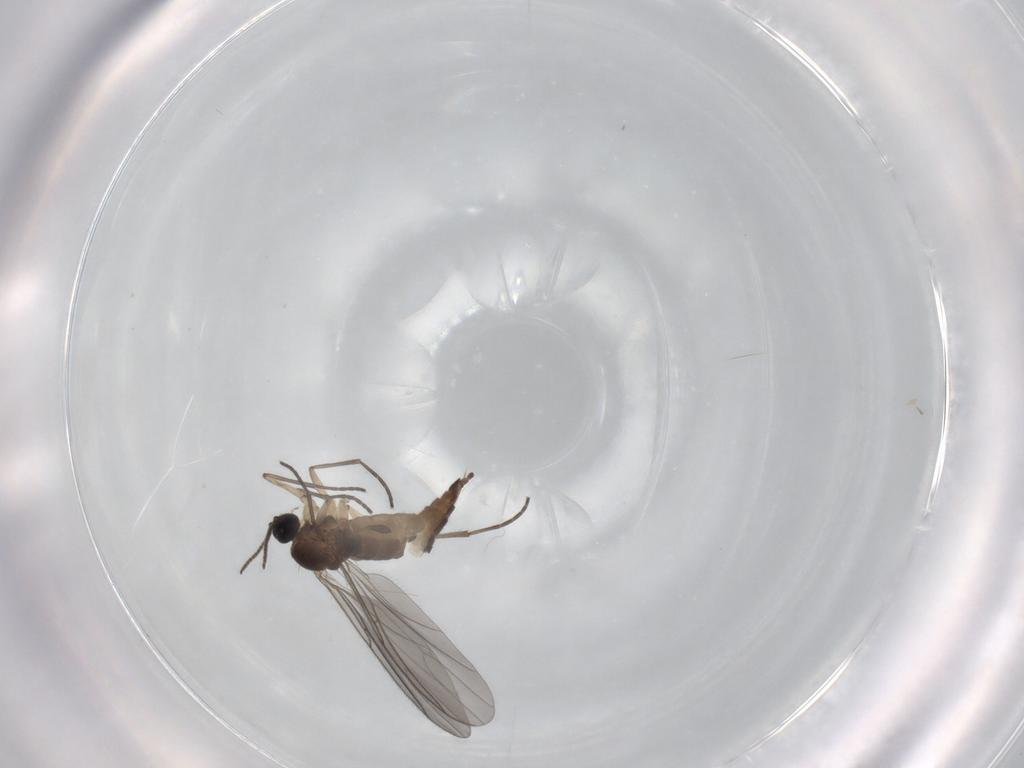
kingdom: Animalia
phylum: Arthropoda
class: Insecta
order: Diptera
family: Sciaridae
